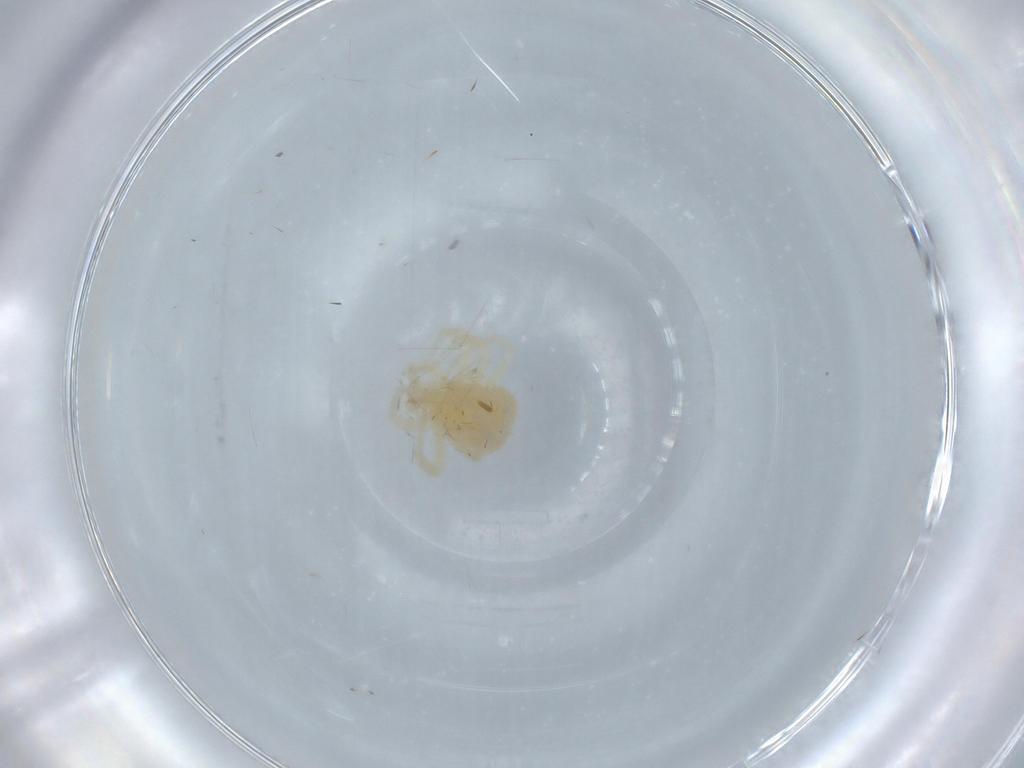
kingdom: Animalia
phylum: Arthropoda
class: Arachnida
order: Trombidiformes
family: Anystidae
